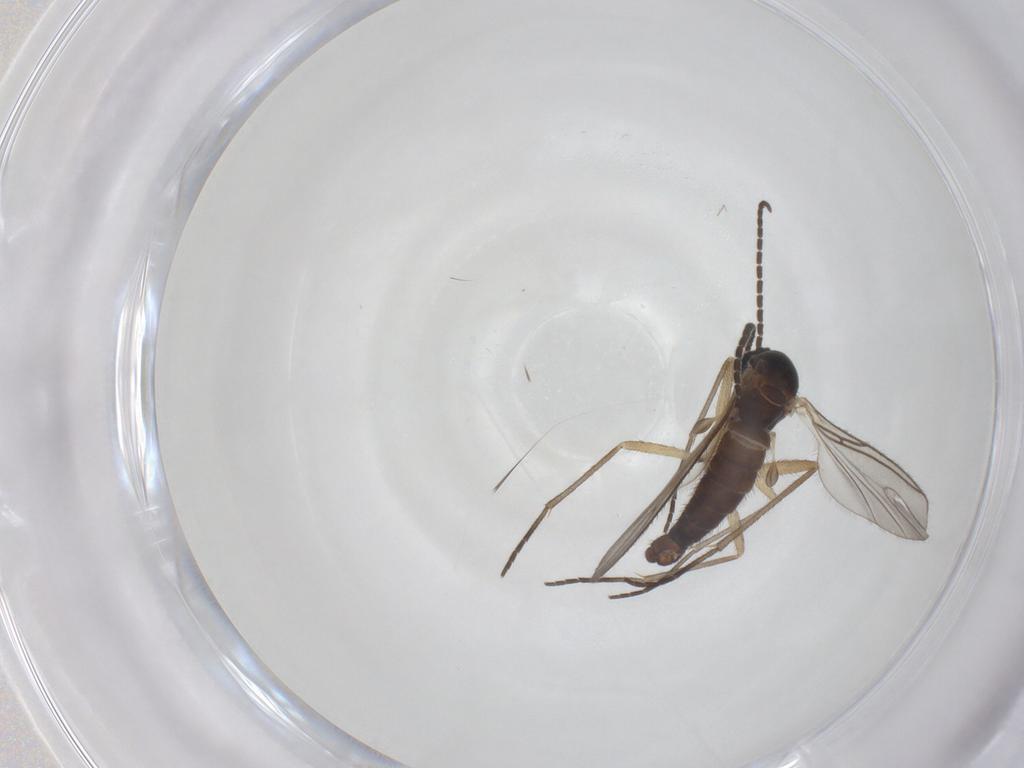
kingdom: Animalia
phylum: Arthropoda
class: Insecta
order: Diptera
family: Sciaridae
